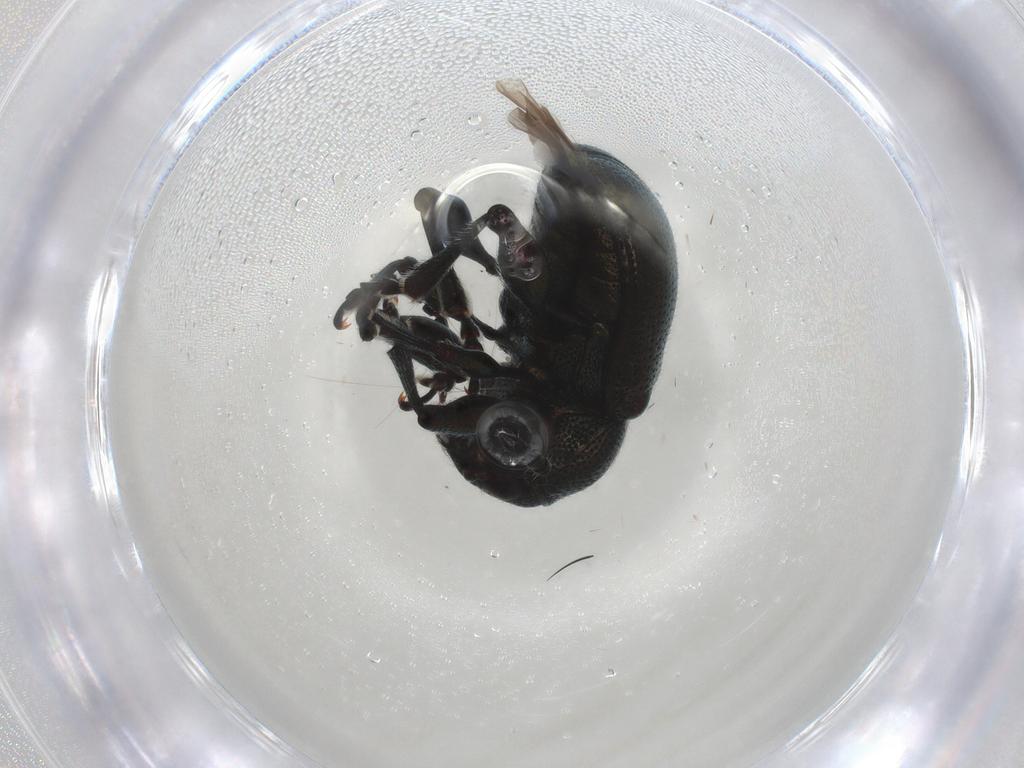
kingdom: Animalia
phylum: Arthropoda
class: Insecta
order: Coleoptera
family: Chrysomelidae
